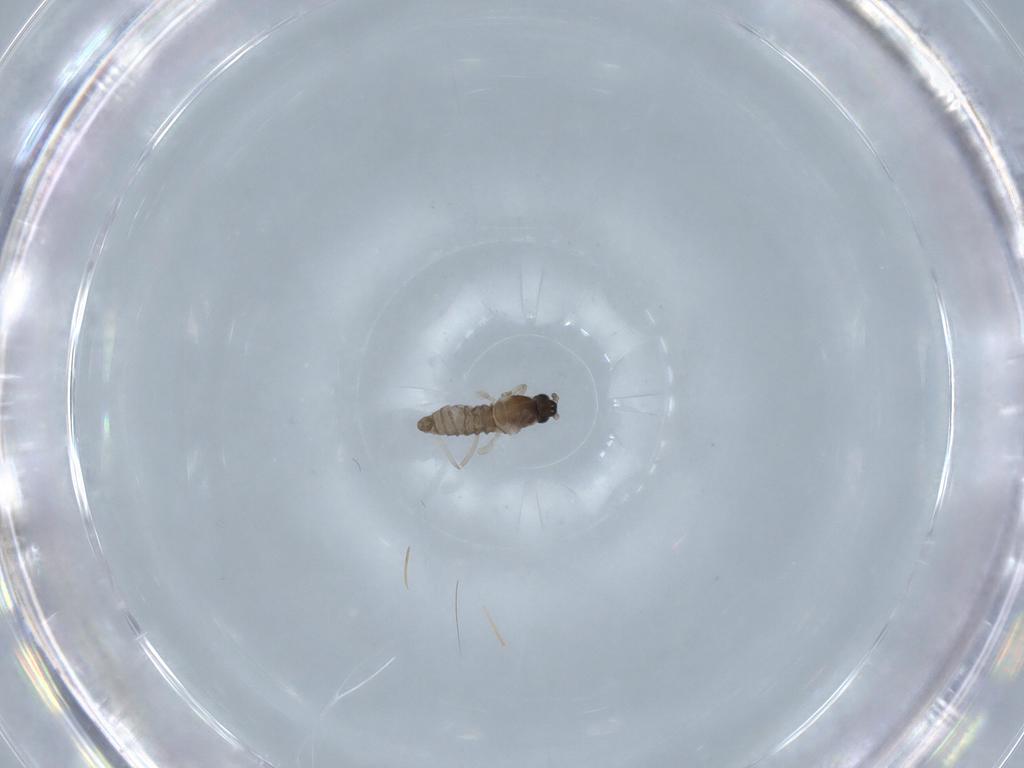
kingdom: Animalia
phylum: Arthropoda
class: Insecta
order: Diptera
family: Cecidomyiidae
